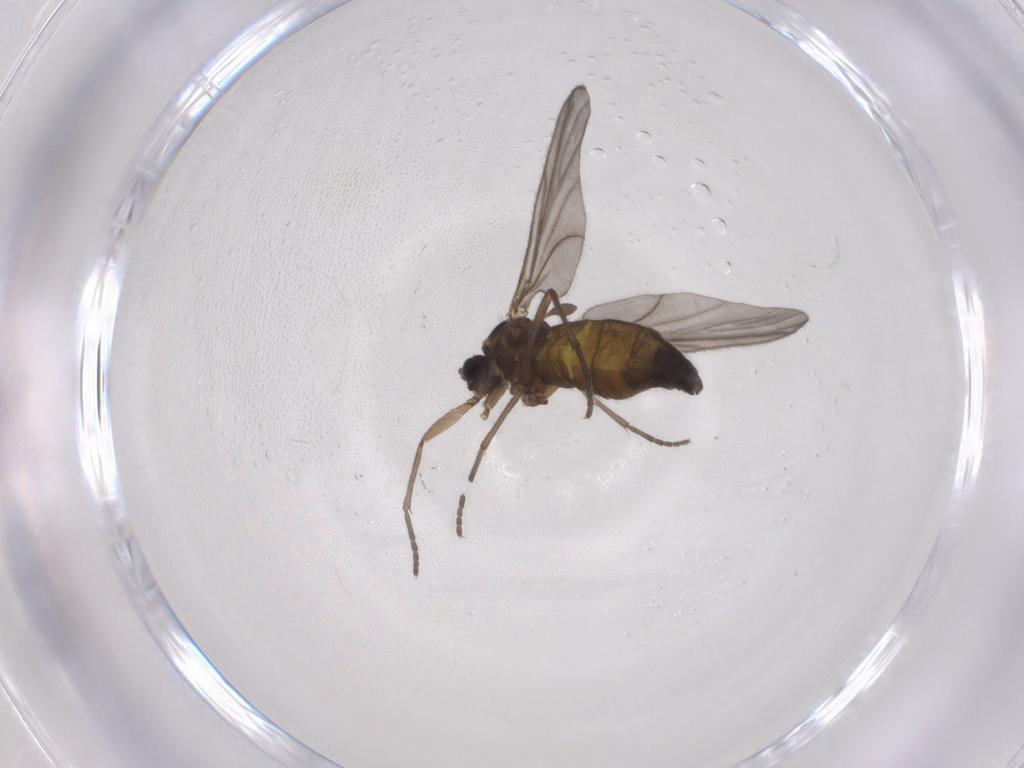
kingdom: Animalia
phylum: Arthropoda
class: Insecta
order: Diptera
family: Sciaridae
